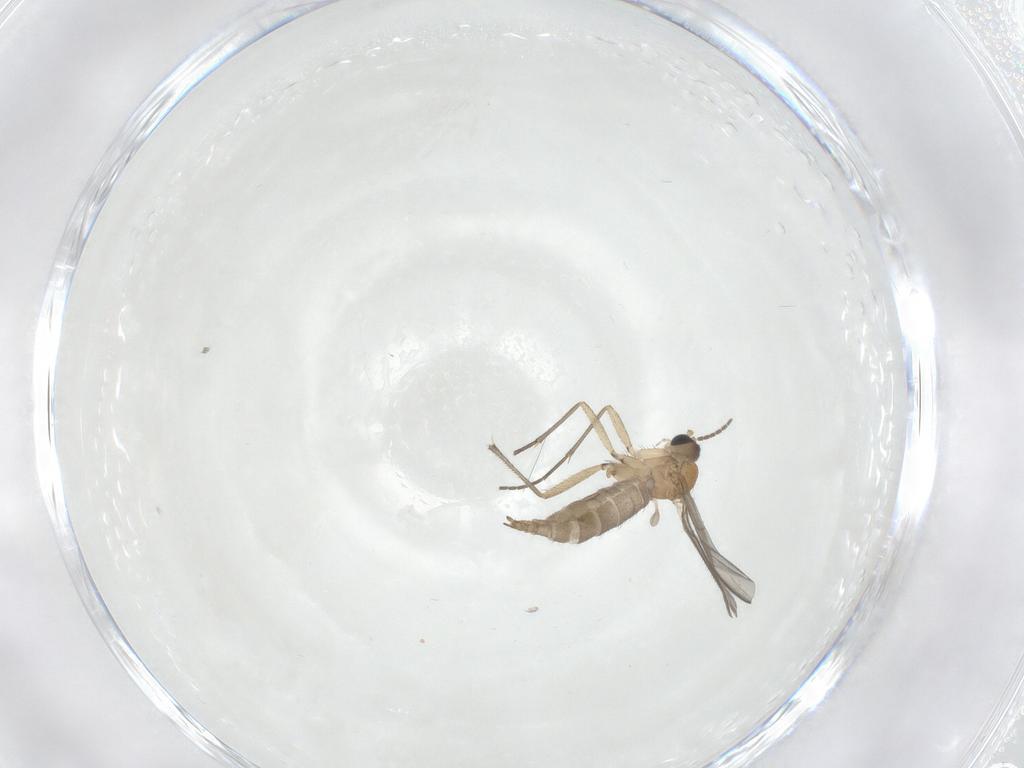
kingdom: Animalia
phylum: Arthropoda
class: Insecta
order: Diptera
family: Sciaridae
